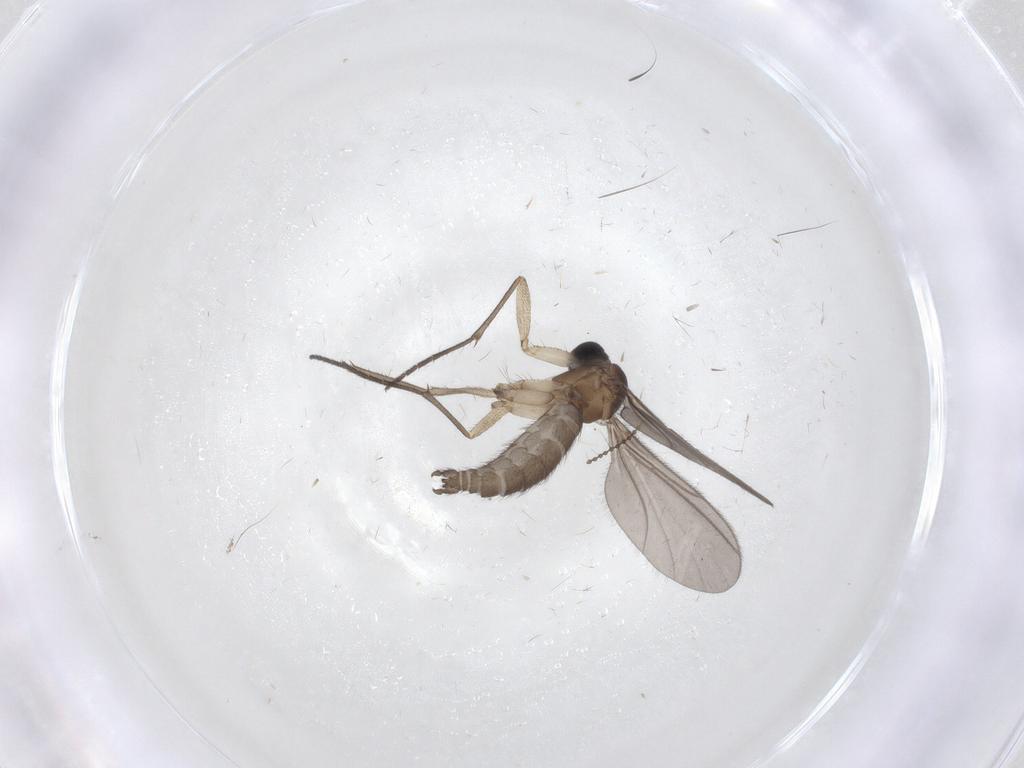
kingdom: Animalia
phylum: Arthropoda
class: Insecta
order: Diptera
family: Sciaridae
